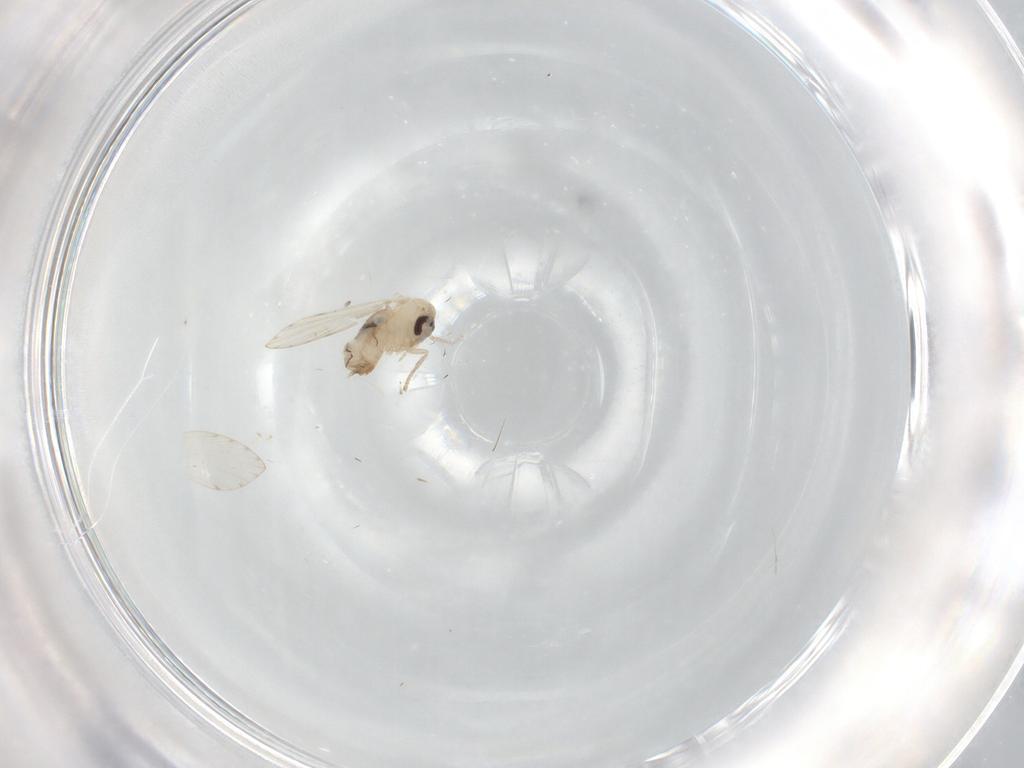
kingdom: Animalia
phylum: Arthropoda
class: Insecta
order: Diptera
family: Psychodidae
